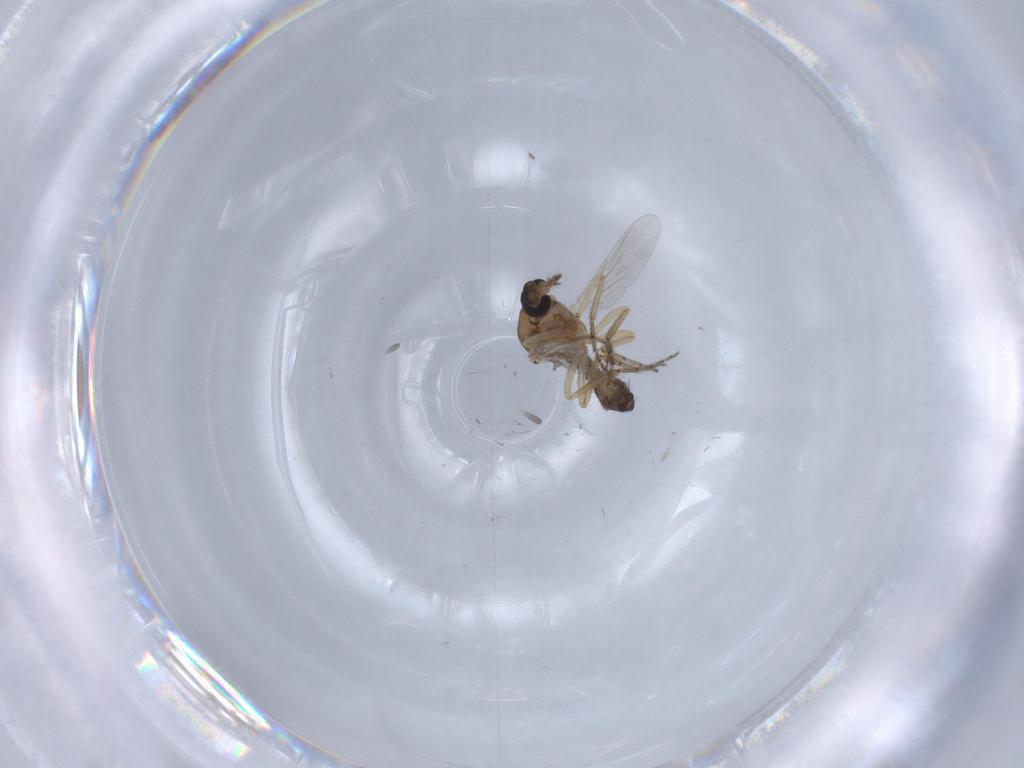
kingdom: Animalia
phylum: Arthropoda
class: Insecta
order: Diptera
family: Ceratopogonidae
